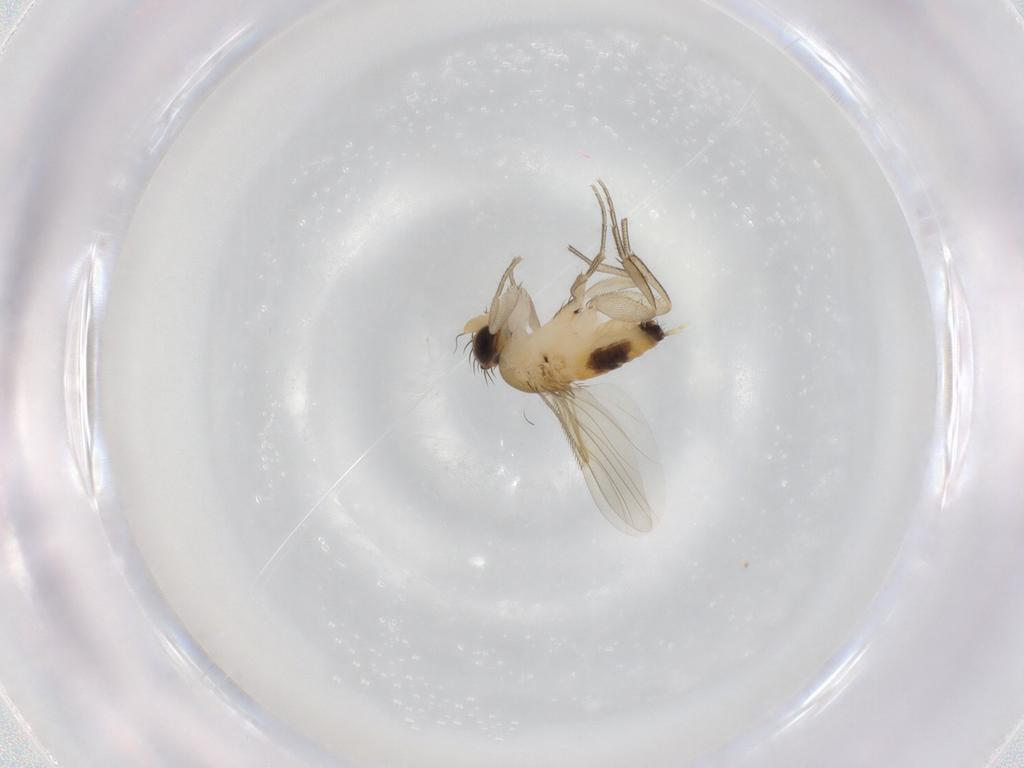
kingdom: Animalia
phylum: Arthropoda
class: Insecta
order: Diptera
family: Phoridae
